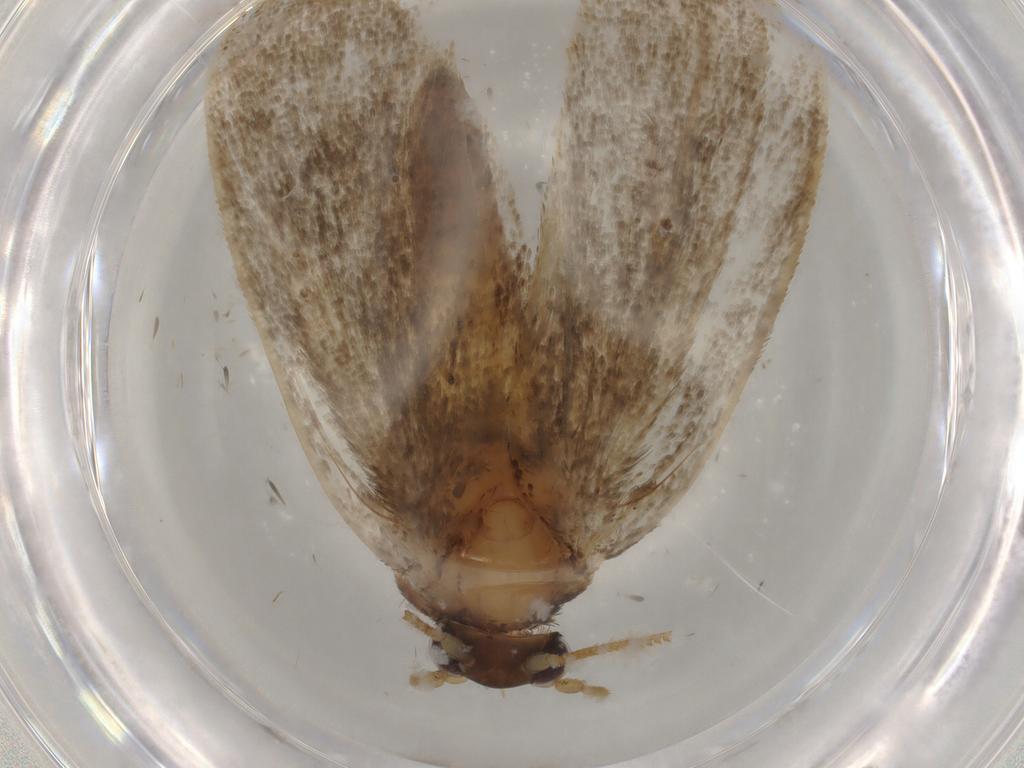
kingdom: Animalia
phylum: Arthropoda
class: Insecta
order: Lepidoptera
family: Tineidae
